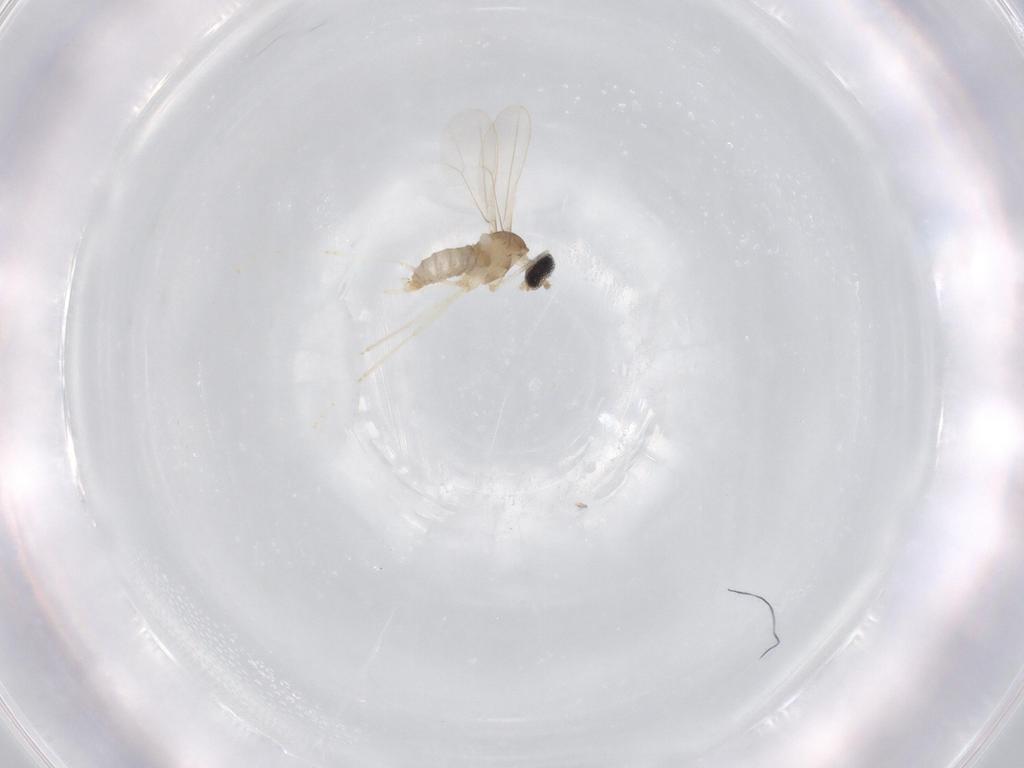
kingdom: Animalia
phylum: Arthropoda
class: Insecta
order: Diptera
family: Cecidomyiidae
